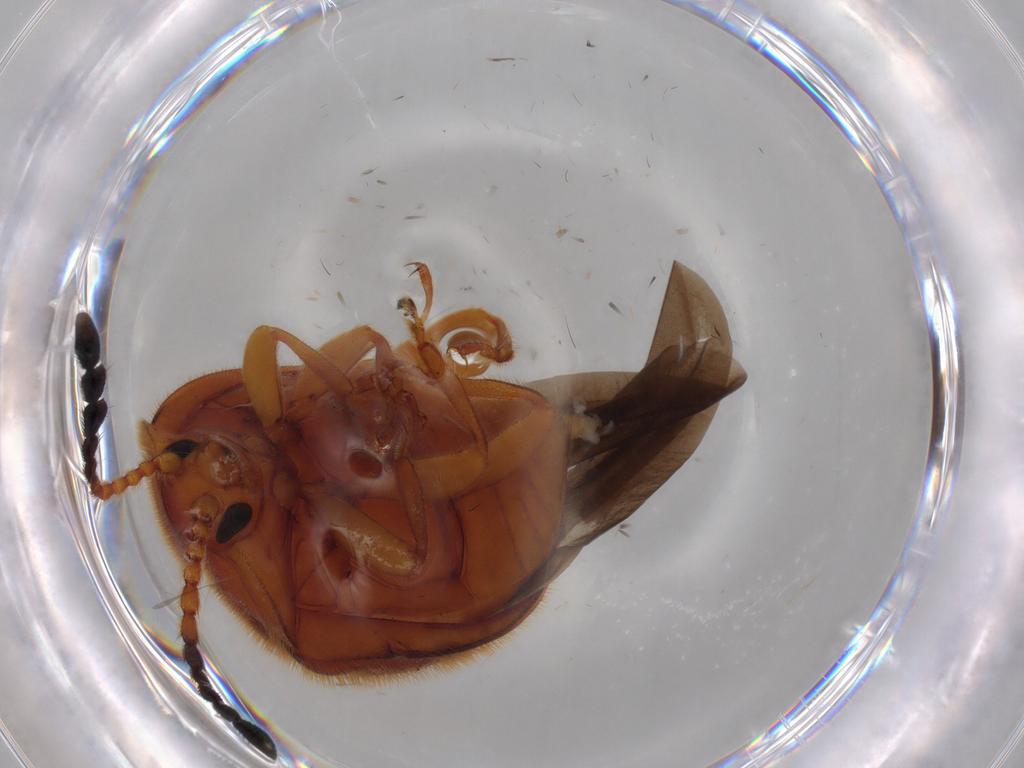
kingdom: Animalia
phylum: Arthropoda
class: Insecta
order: Coleoptera
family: Endomychidae
